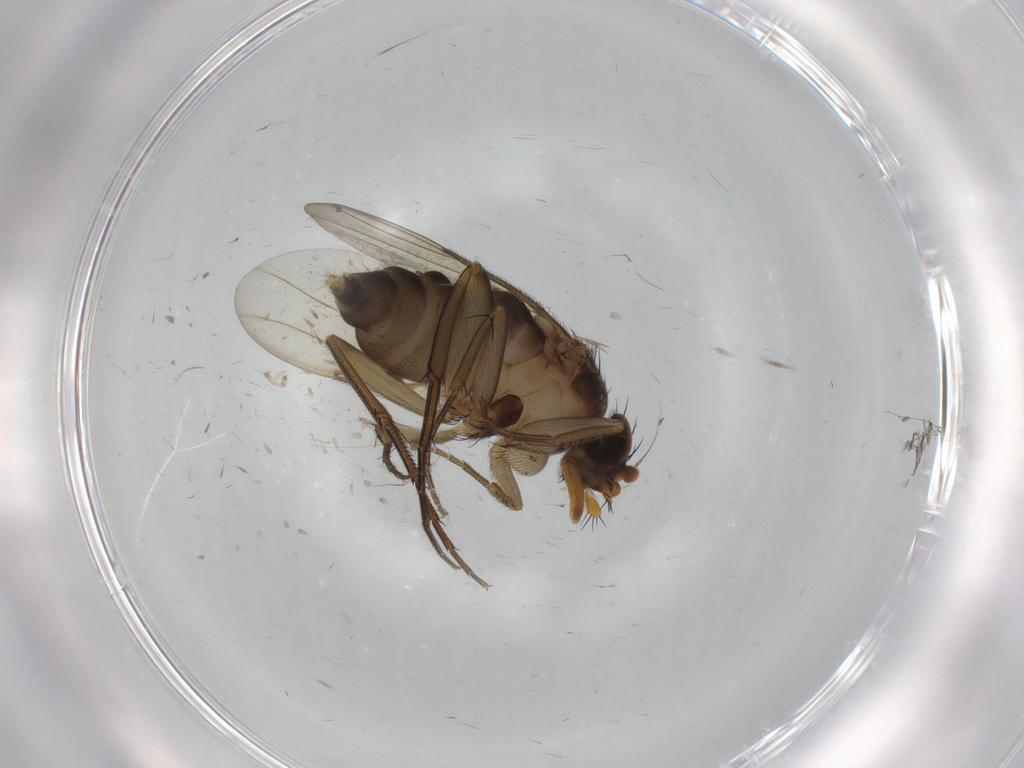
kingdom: Animalia
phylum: Arthropoda
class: Insecta
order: Diptera
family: Phoridae
